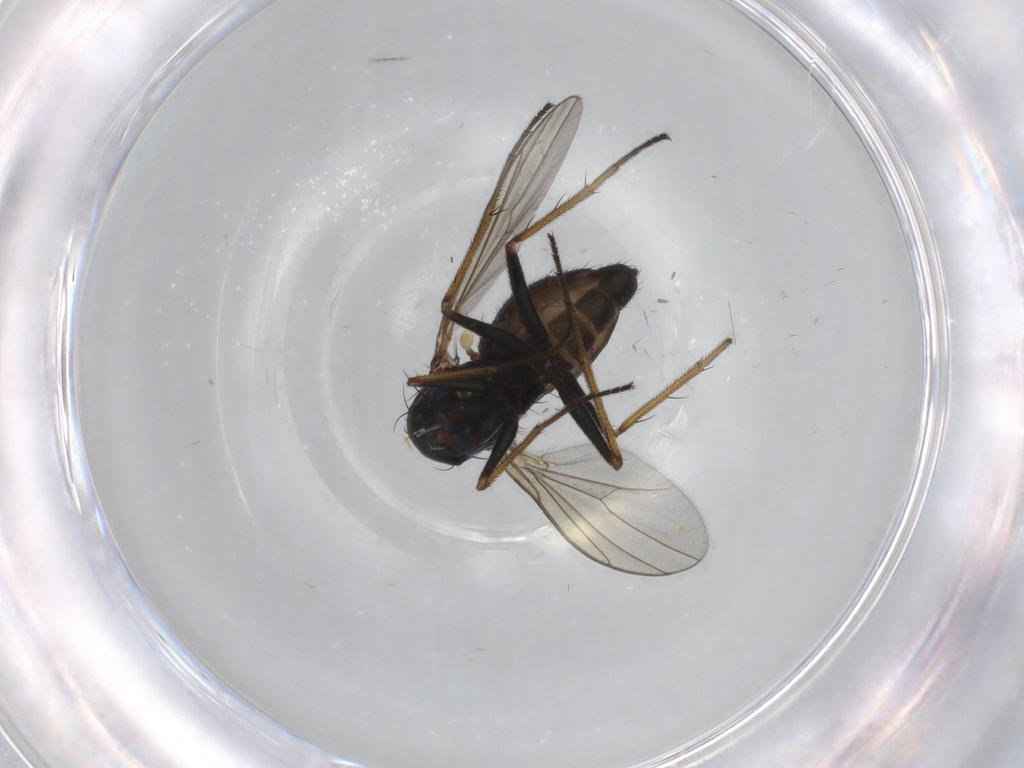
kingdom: Animalia
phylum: Arthropoda
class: Insecta
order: Diptera
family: Dolichopodidae
